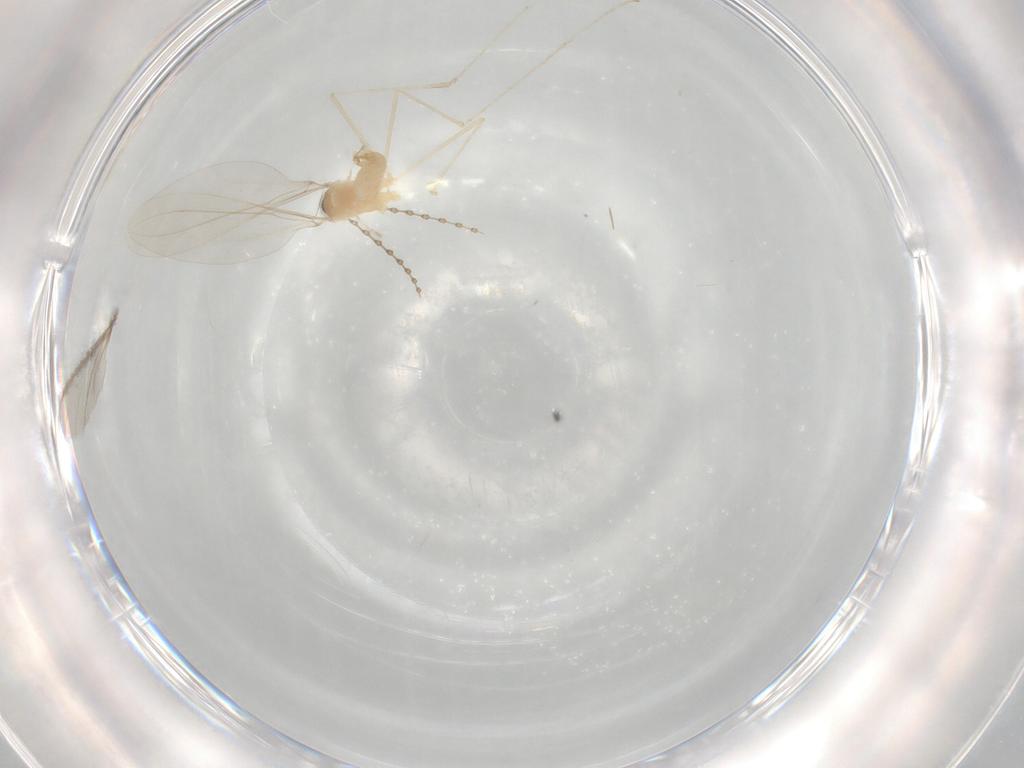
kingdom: Animalia
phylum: Arthropoda
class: Insecta
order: Diptera
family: Cecidomyiidae
